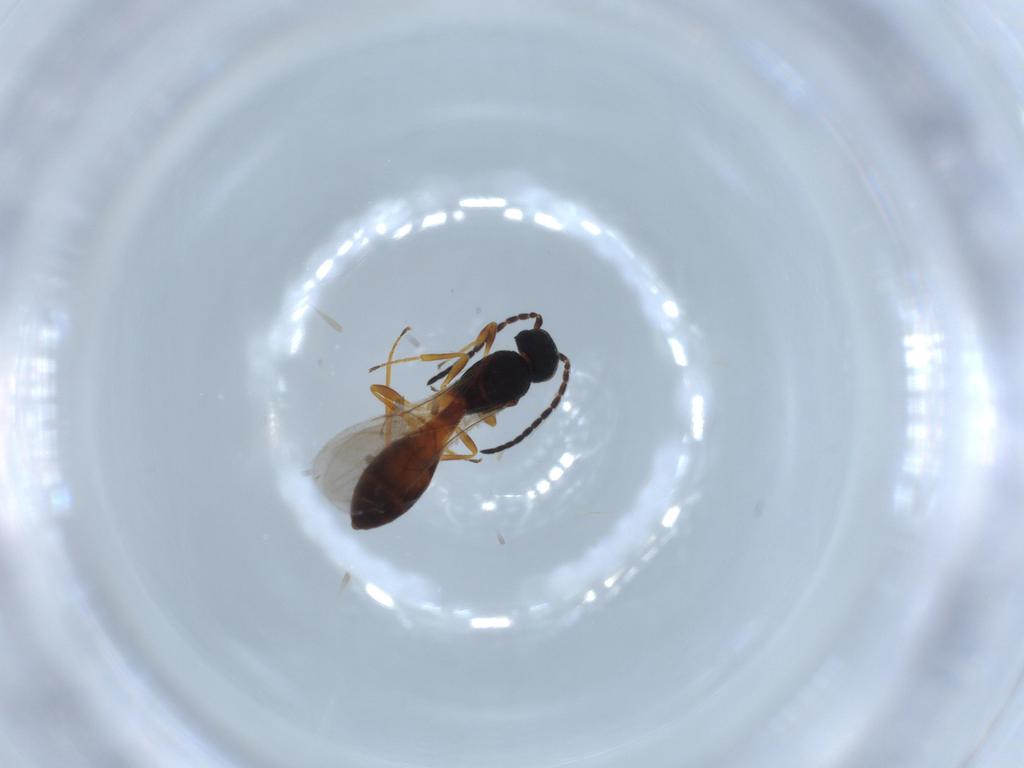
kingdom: Animalia
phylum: Arthropoda
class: Insecta
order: Hymenoptera
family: Scelionidae
